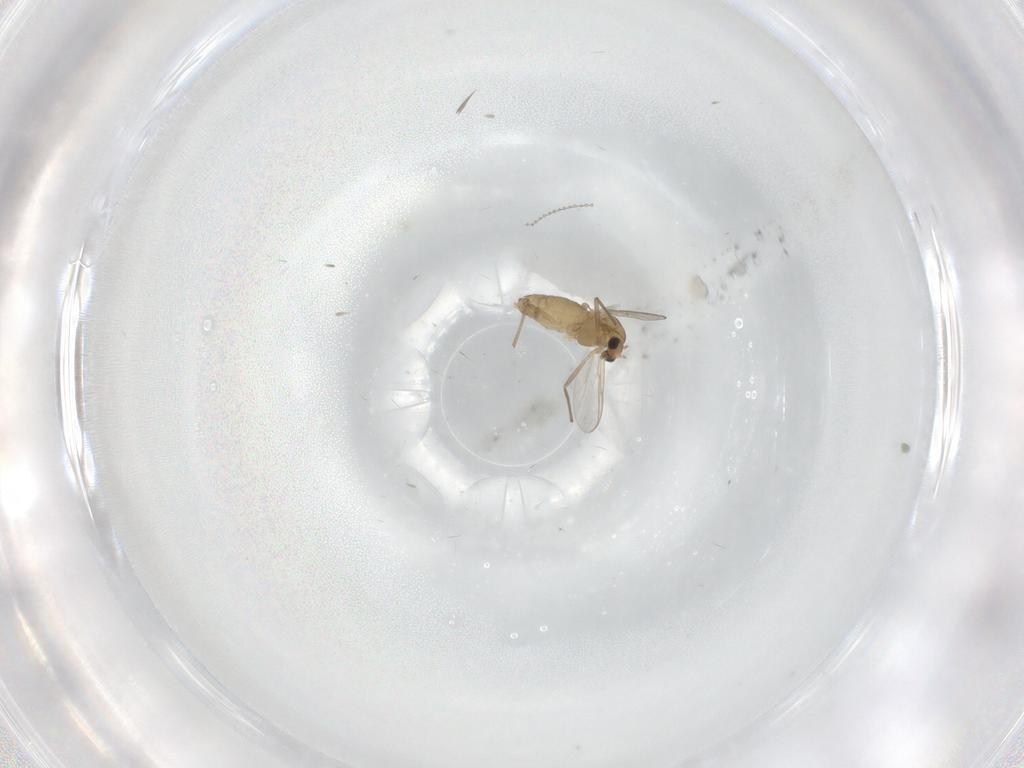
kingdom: Animalia
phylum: Arthropoda
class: Insecta
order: Diptera
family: Chironomidae
